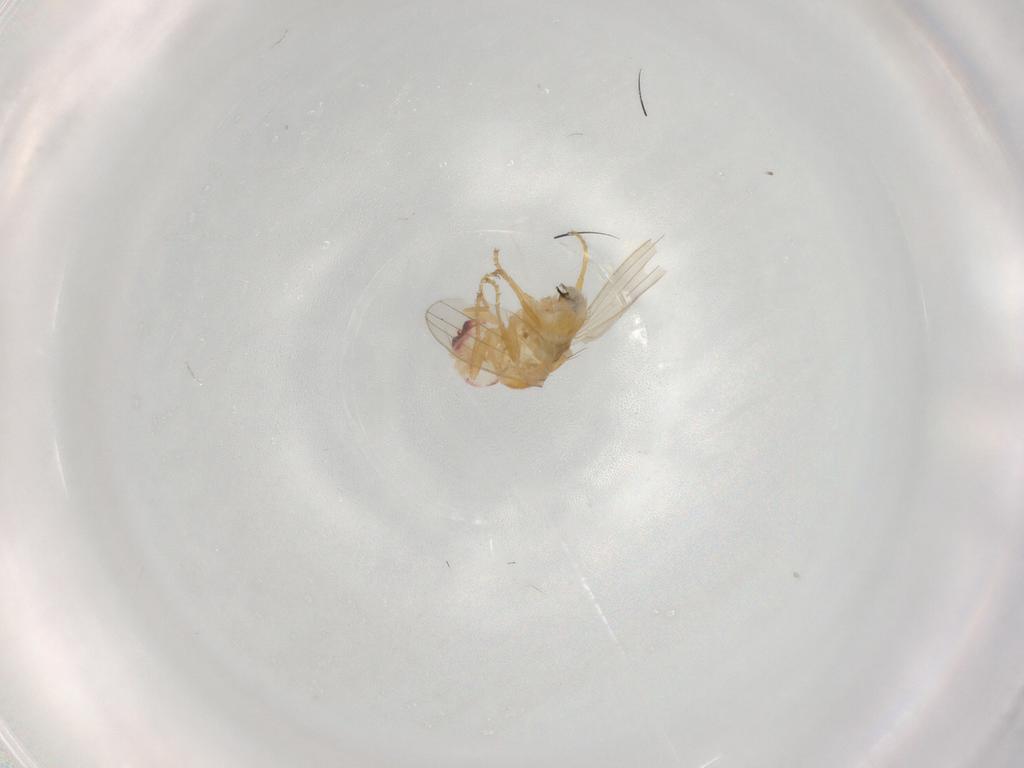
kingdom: Animalia
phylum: Arthropoda
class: Insecta
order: Diptera
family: Chyromyidae
